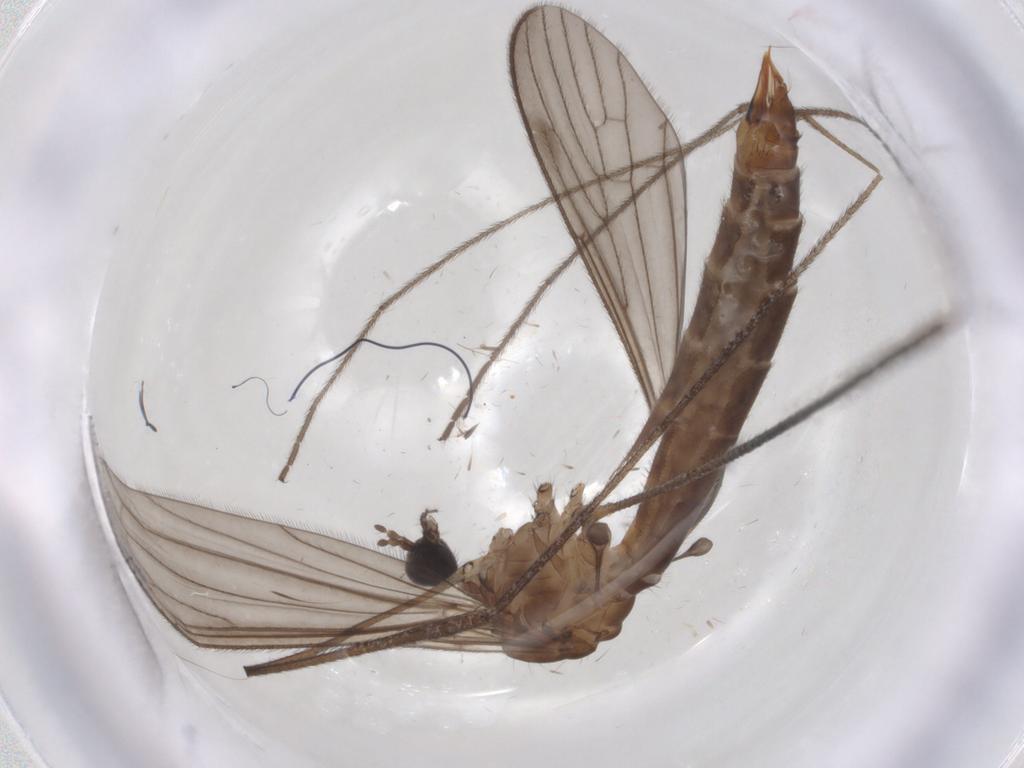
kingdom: Animalia
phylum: Arthropoda
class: Insecta
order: Diptera
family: Limoniidae
